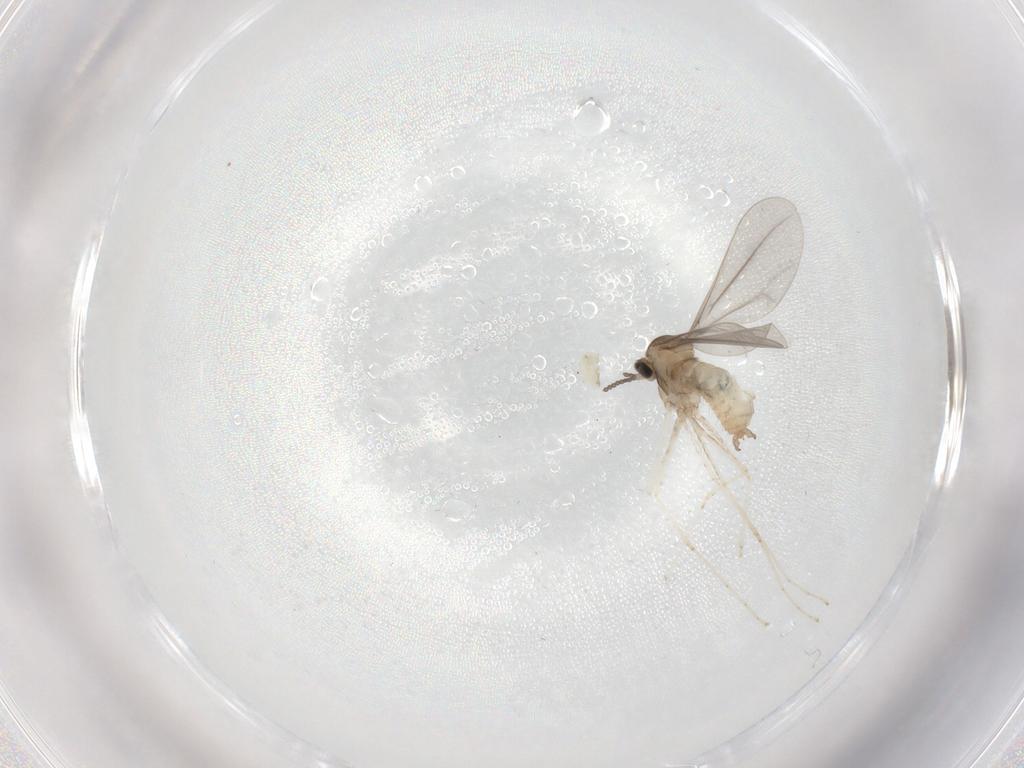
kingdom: Animalia
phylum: Arthropoda
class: Insecta
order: Diptera
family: Cecidomyiidae
